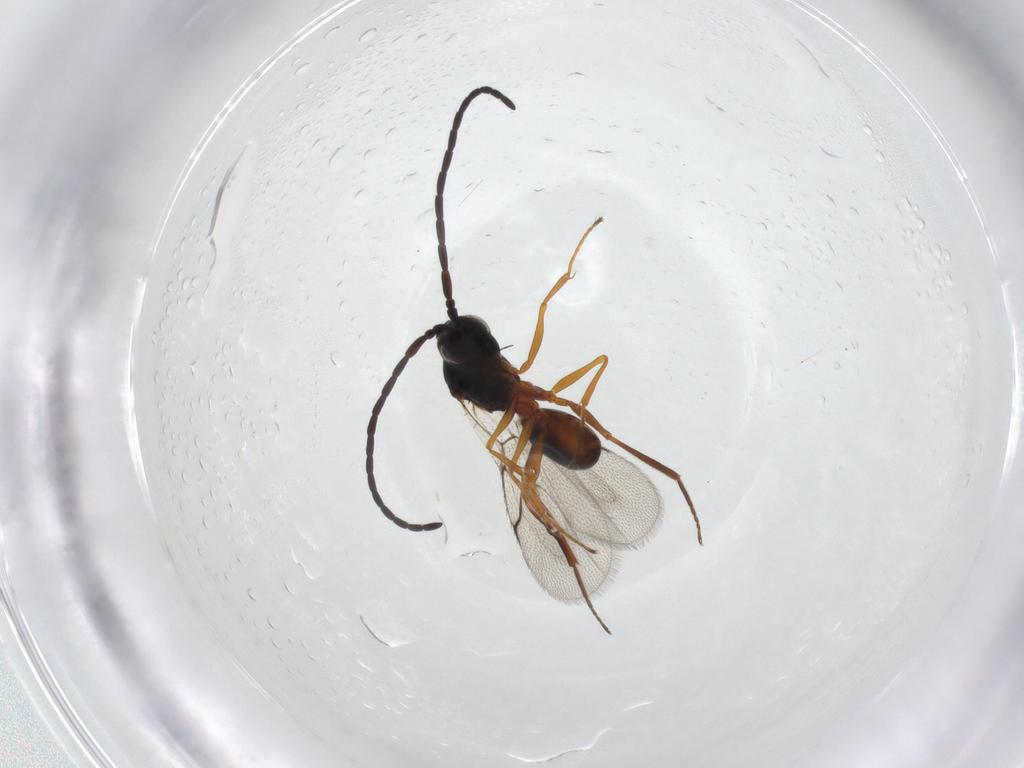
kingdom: Animalia
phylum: Arthropoda
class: Insecta
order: Hymenoptera
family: Figitidae
